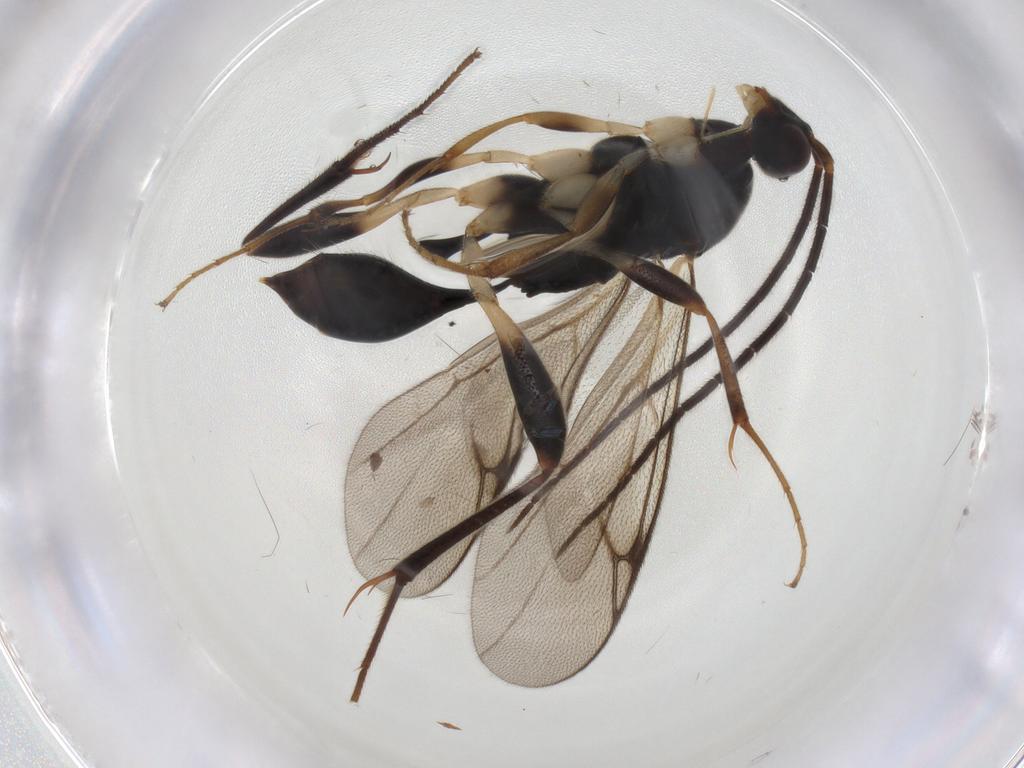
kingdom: Animalia
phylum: Arthropoda
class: Insecta
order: Hymenoptera
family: Proctotrupidae
